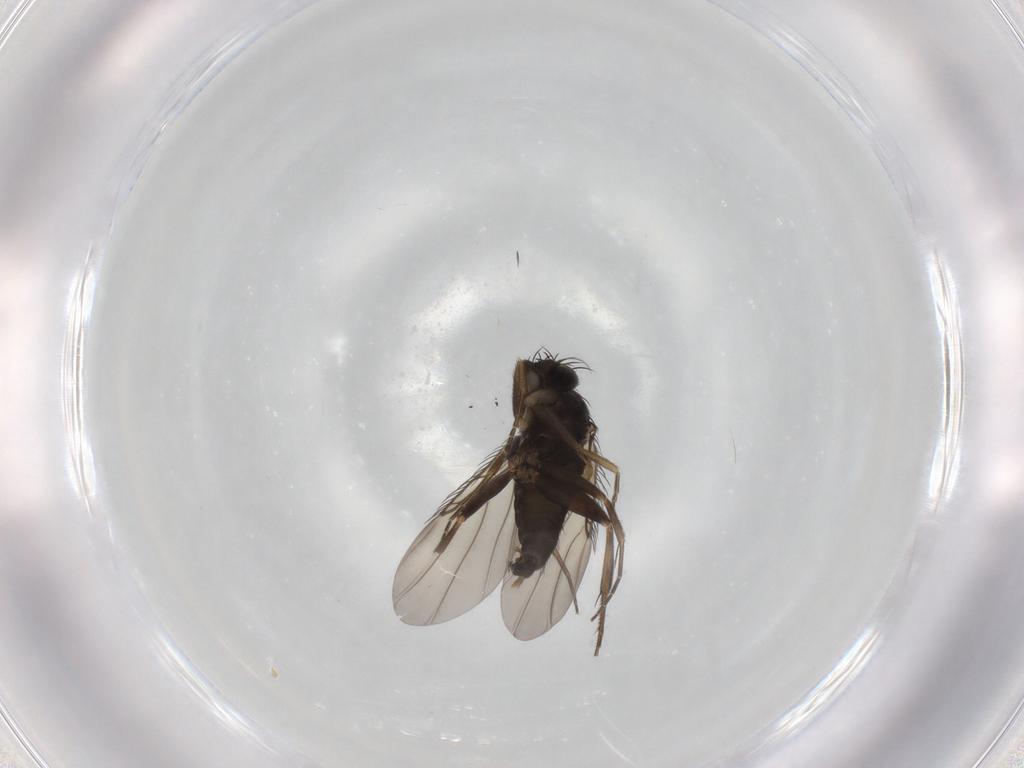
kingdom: Animalia
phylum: Arthropoda
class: Insecta
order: Diptera
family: Phoridae
